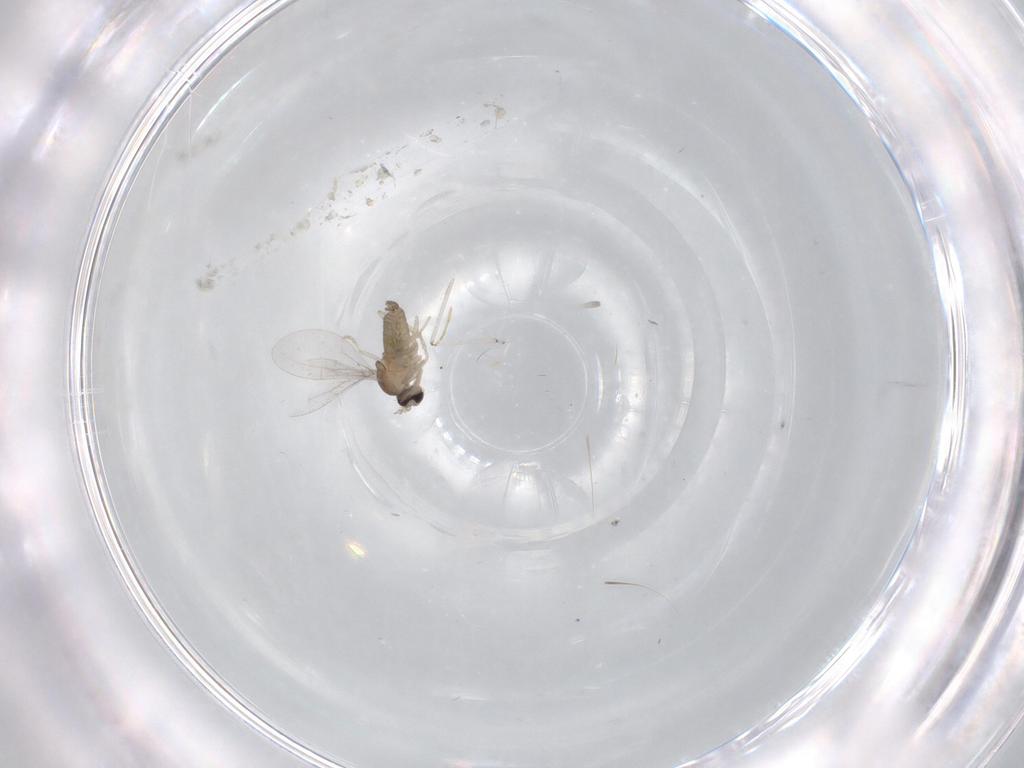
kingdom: Animalia
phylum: Arthropoda
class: Insecta
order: Diptera
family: Cecidomyiidae
